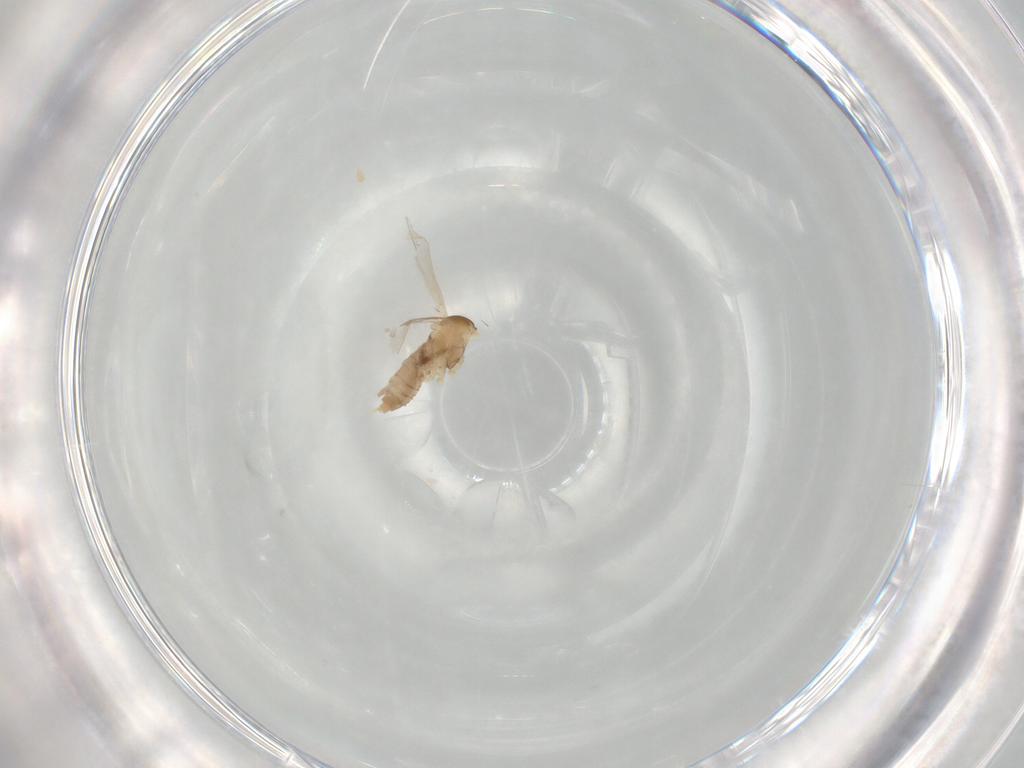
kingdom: Animalia
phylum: Arthropoda
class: Insecta
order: Diptera
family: Cecidomyiidae
